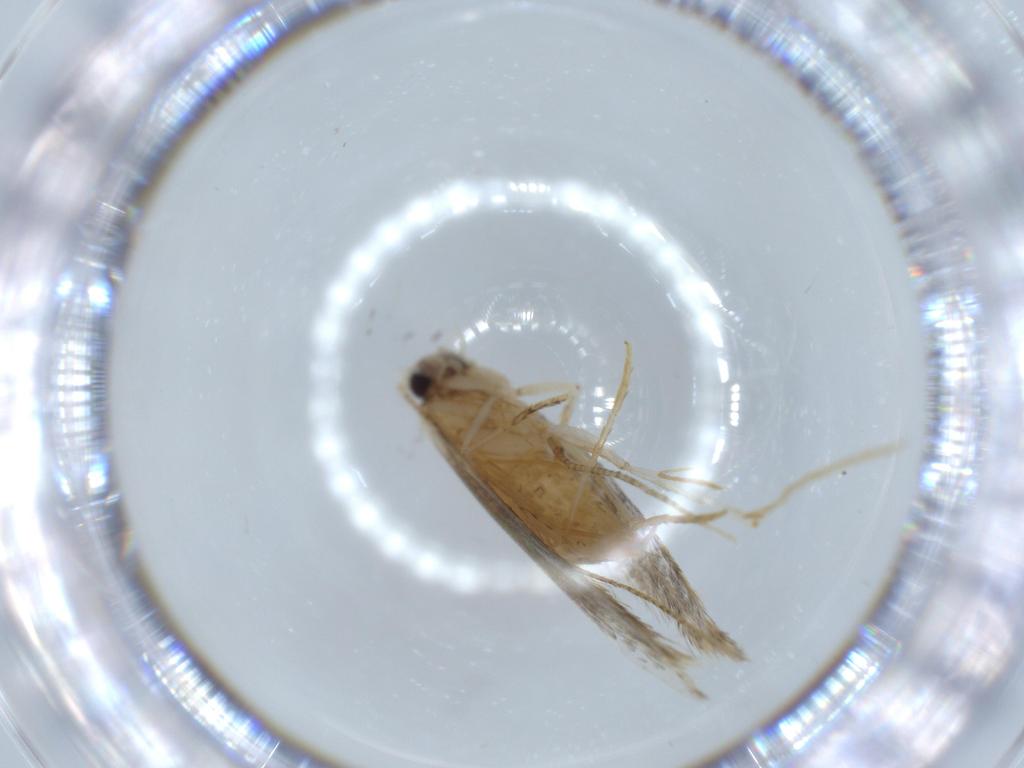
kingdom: Animalia
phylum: Arthropoda
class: Insecta
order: Lepidoptera
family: Tineidae
